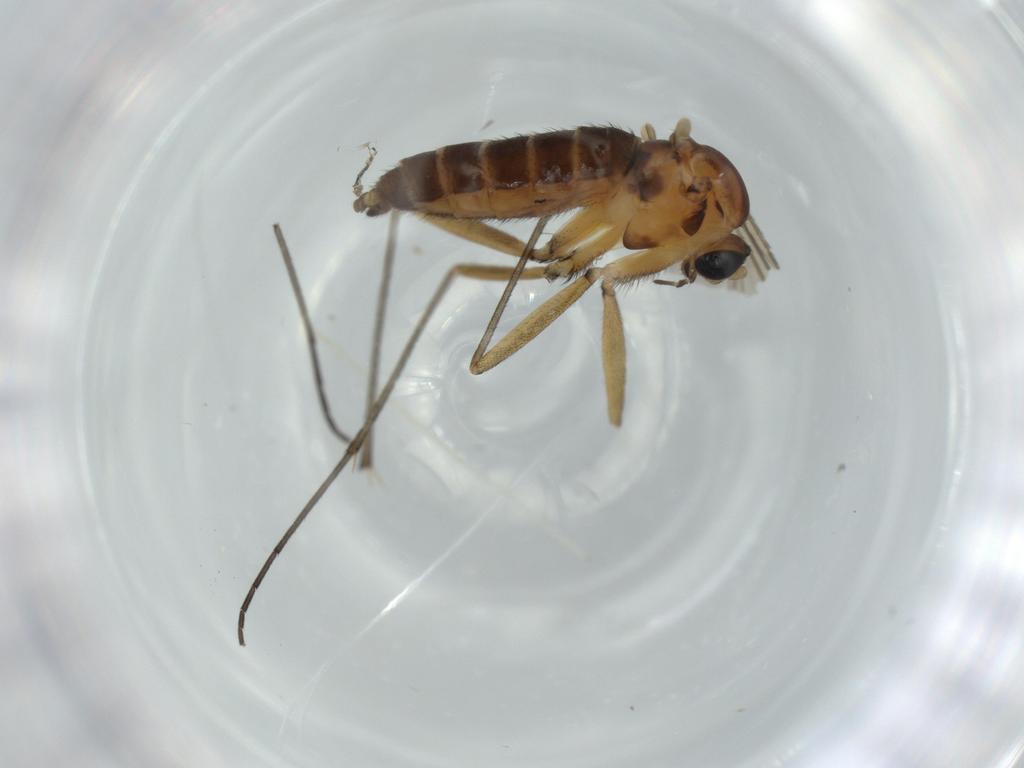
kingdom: Animalia
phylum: Arthropoda
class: Insecta
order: Diptera
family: Sciaridae
